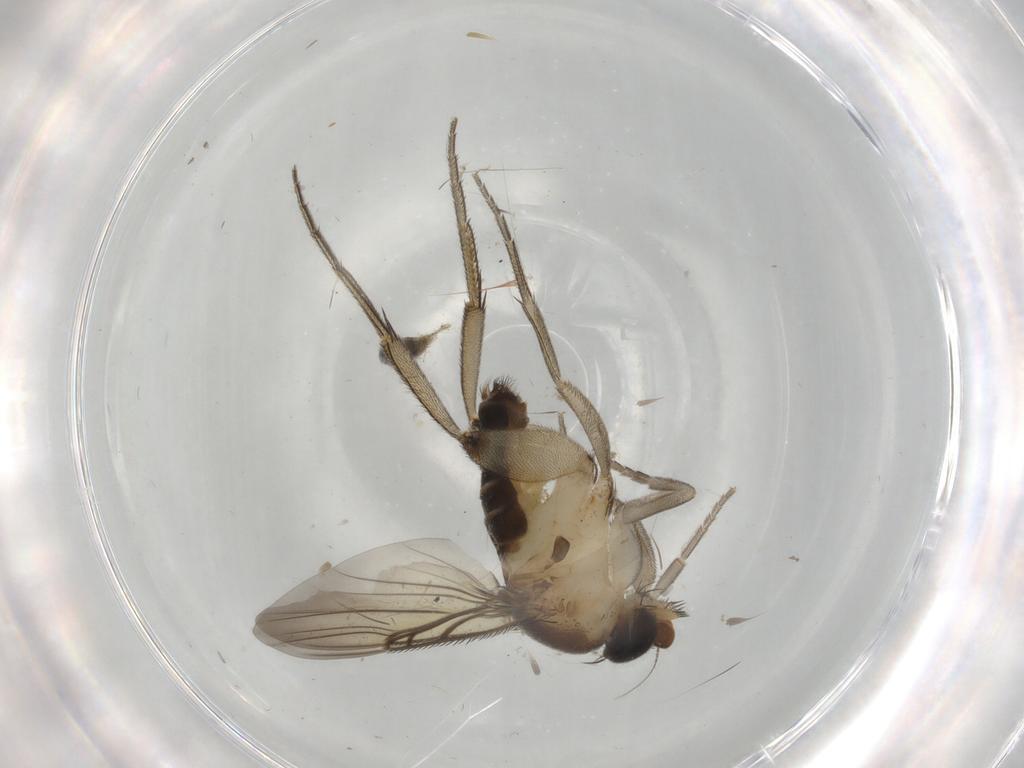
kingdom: Animalia
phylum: Arthropoda
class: Insecta
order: Diptera
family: Phoridae
